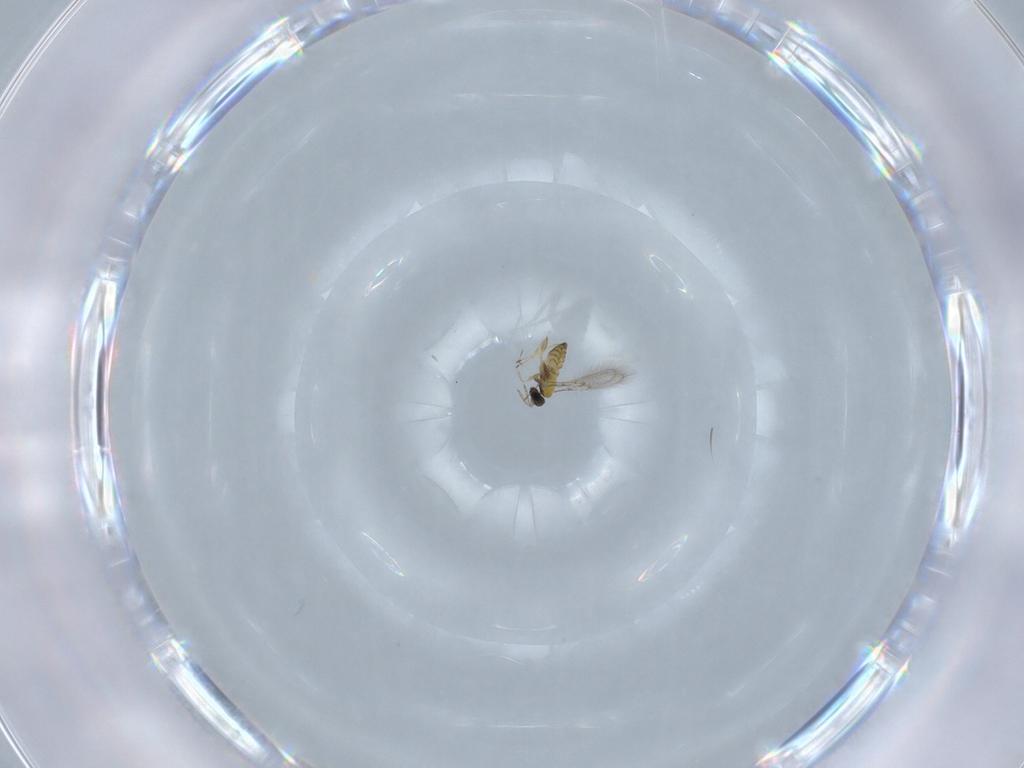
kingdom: Animalia
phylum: Arthropoda
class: Insecta
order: Hymenoptera
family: Trichogrammatidae
